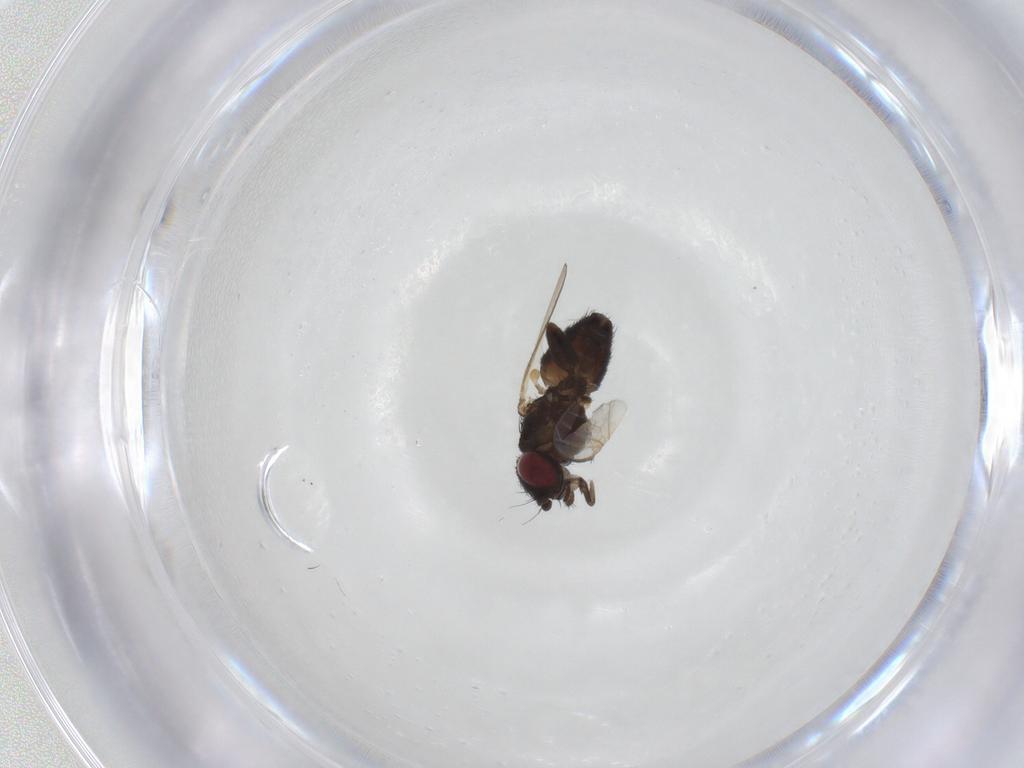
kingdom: Animalia
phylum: Arthropoda
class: Insecta
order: Diptera
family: Milichiidae
